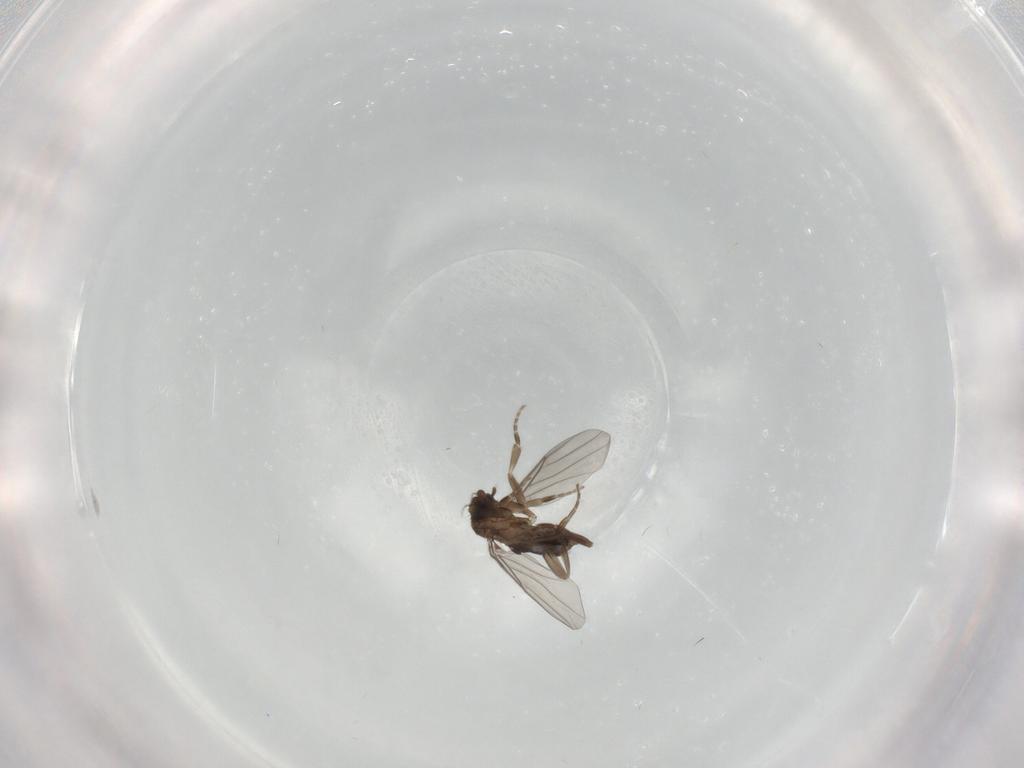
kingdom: Animalia
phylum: Arthropoda
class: Insecta
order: Diptera
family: Phoridae
